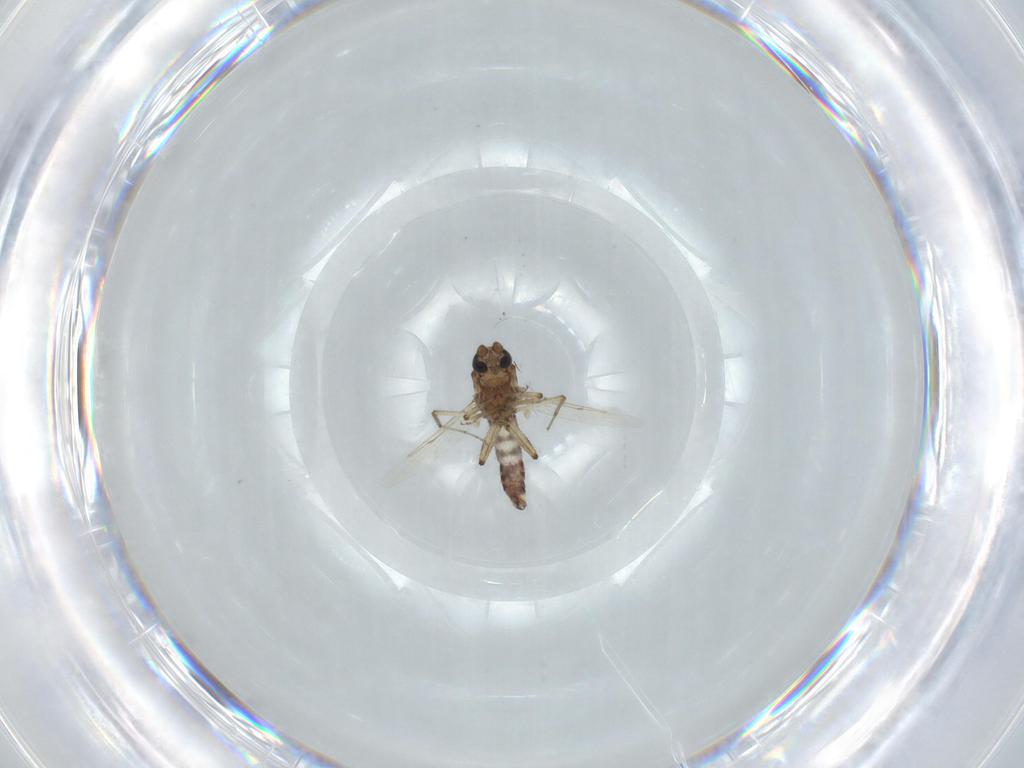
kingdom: Animalia
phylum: Arthropoda
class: Insecta
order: Diptera
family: Ceratopogonidae
